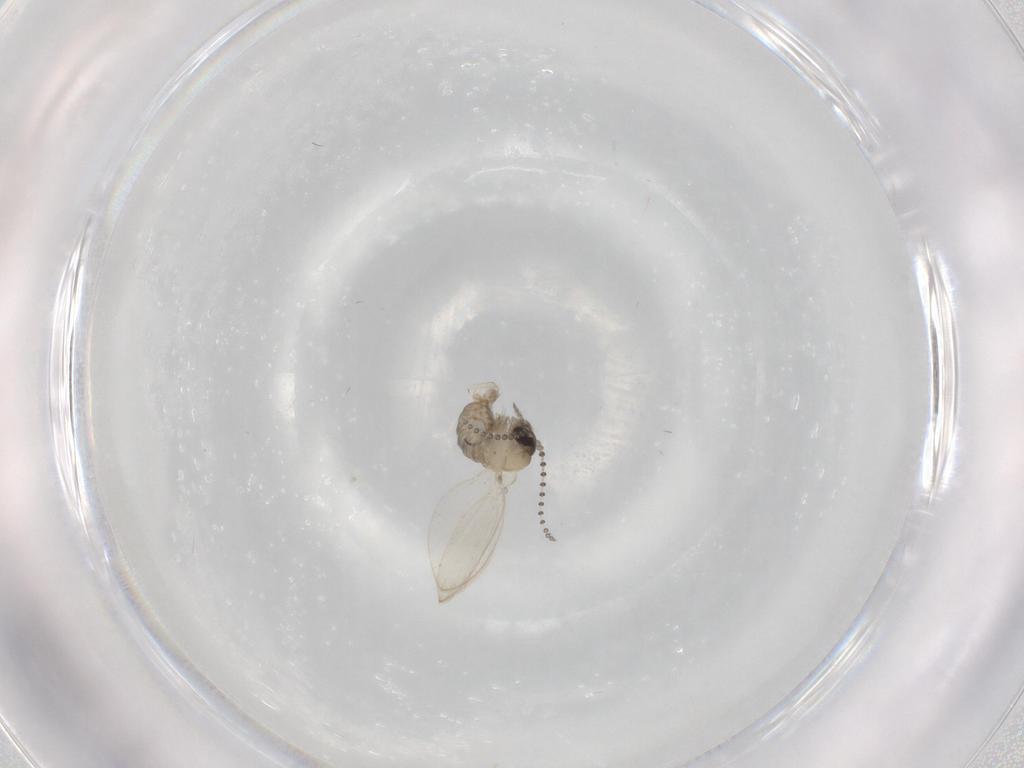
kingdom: Animalia
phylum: Arthropoda
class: Insecta
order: Diptera
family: Psychodidae
